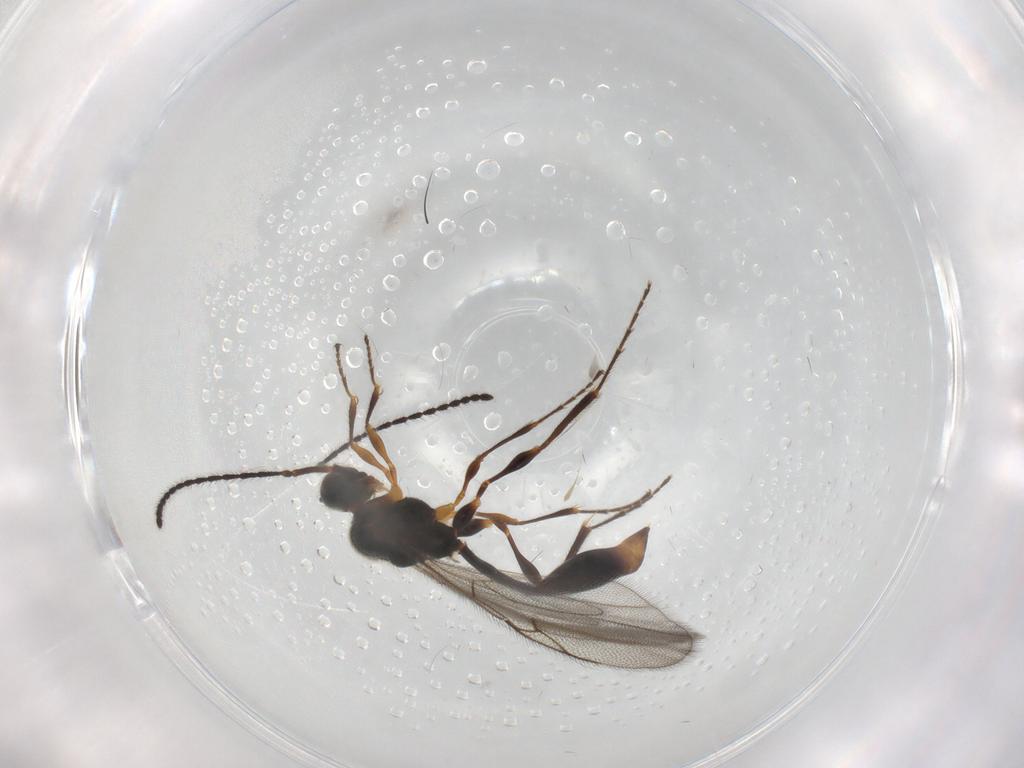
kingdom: Animalia
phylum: Arthropoda
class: Insecta
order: Hymenoptera
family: Diapriidae
